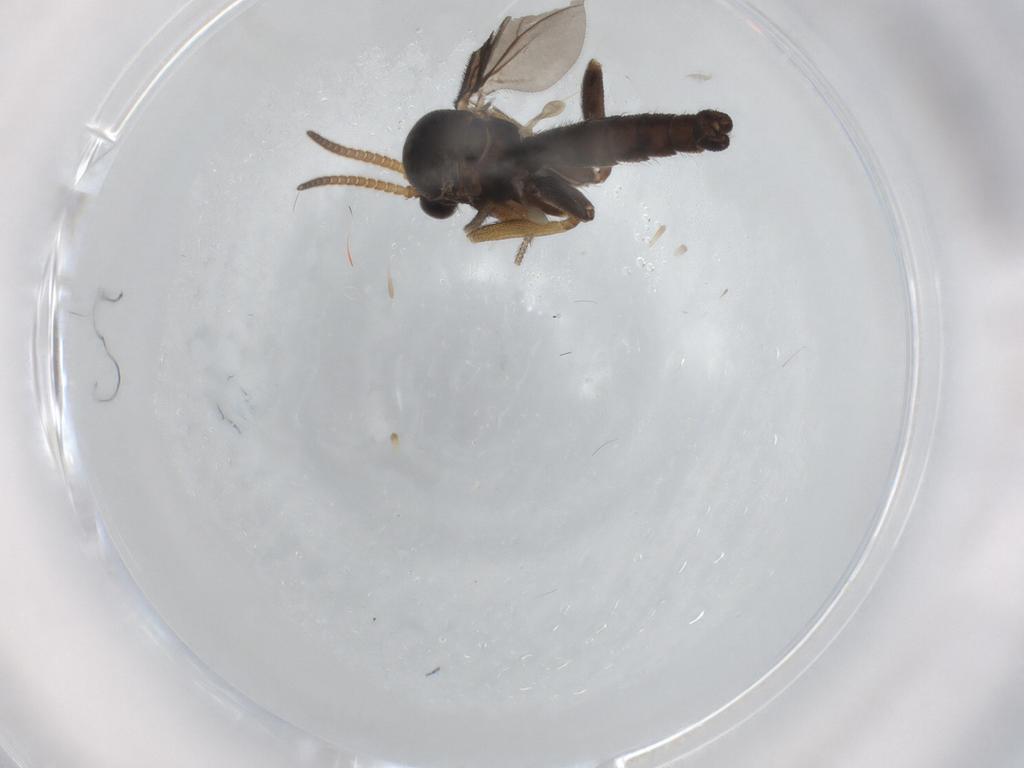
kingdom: Animalia
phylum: Arthropoda
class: Insecta
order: Diptera
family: Mycetophilidae
